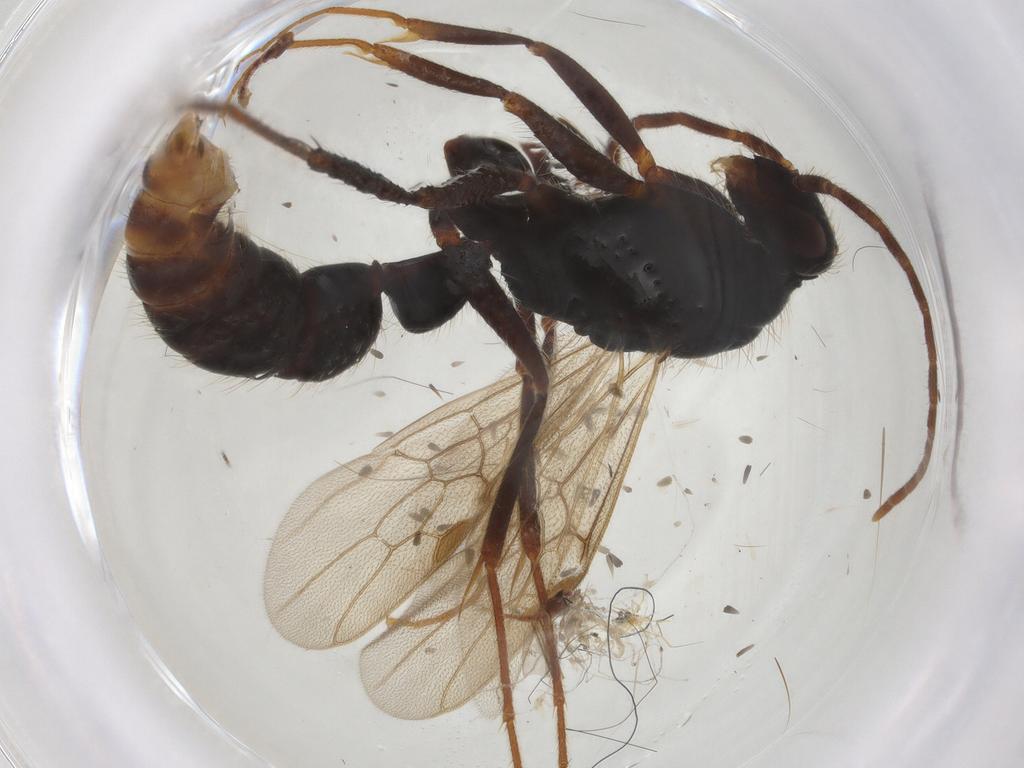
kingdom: Animalia
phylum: Arthropoda
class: Insecta
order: Hymenoptera
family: Formicidae
